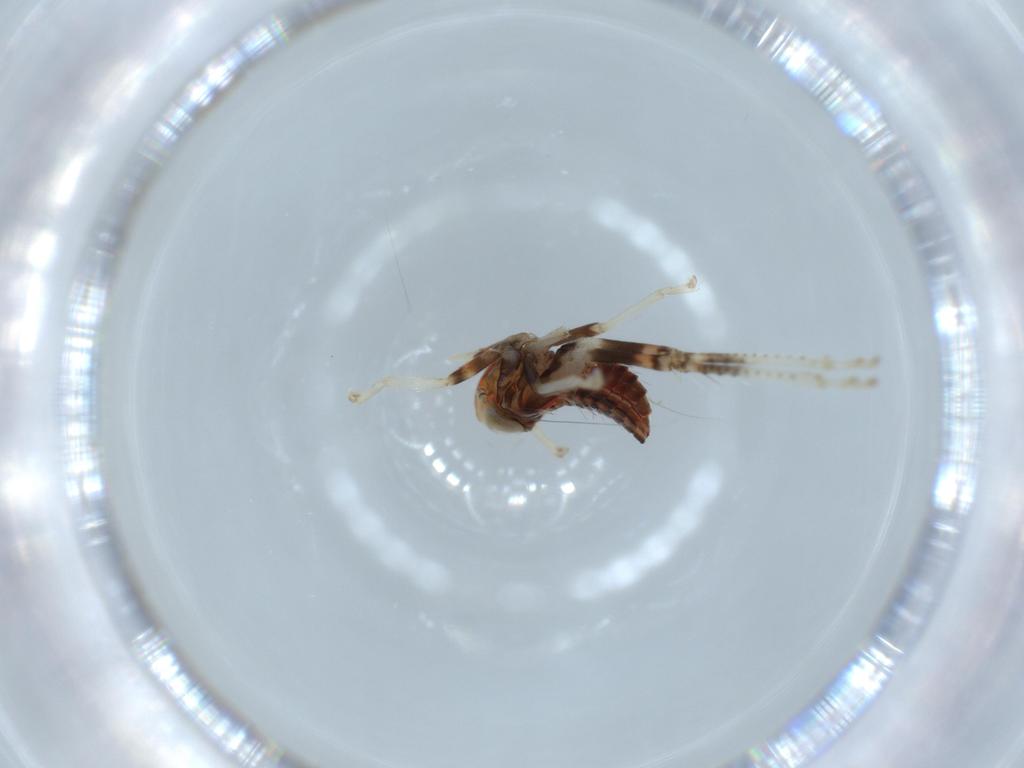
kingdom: Animalia
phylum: Arthropoda
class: Insecta
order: Hemiptera
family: Cicadellidae
